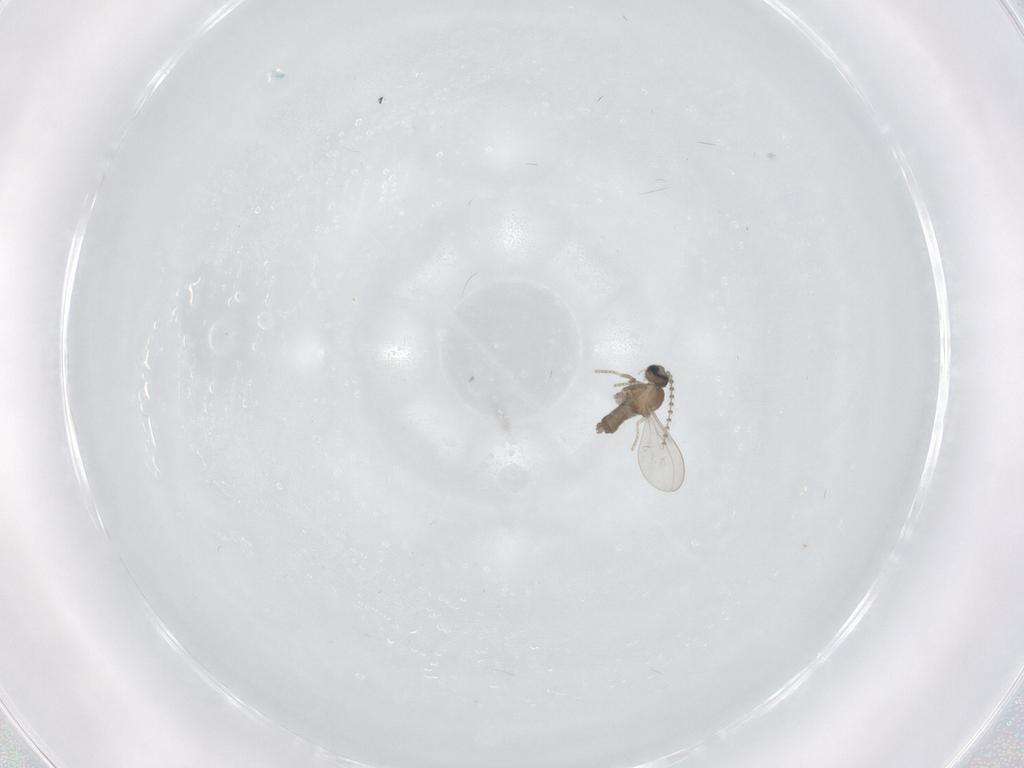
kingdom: Animalia
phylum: Arthropoda
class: Insecta
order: Diptera
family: Cecidomyiidae
